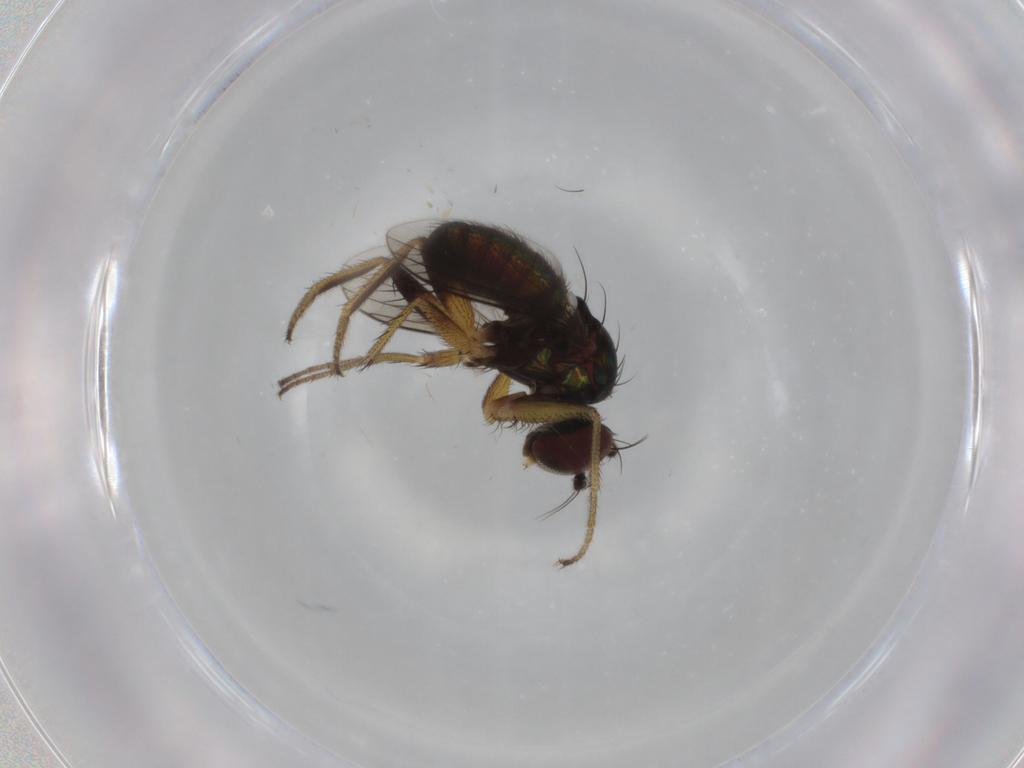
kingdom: Animalia
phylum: Arthropoda
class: Insecta
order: Diptera
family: Dolichopodidae
